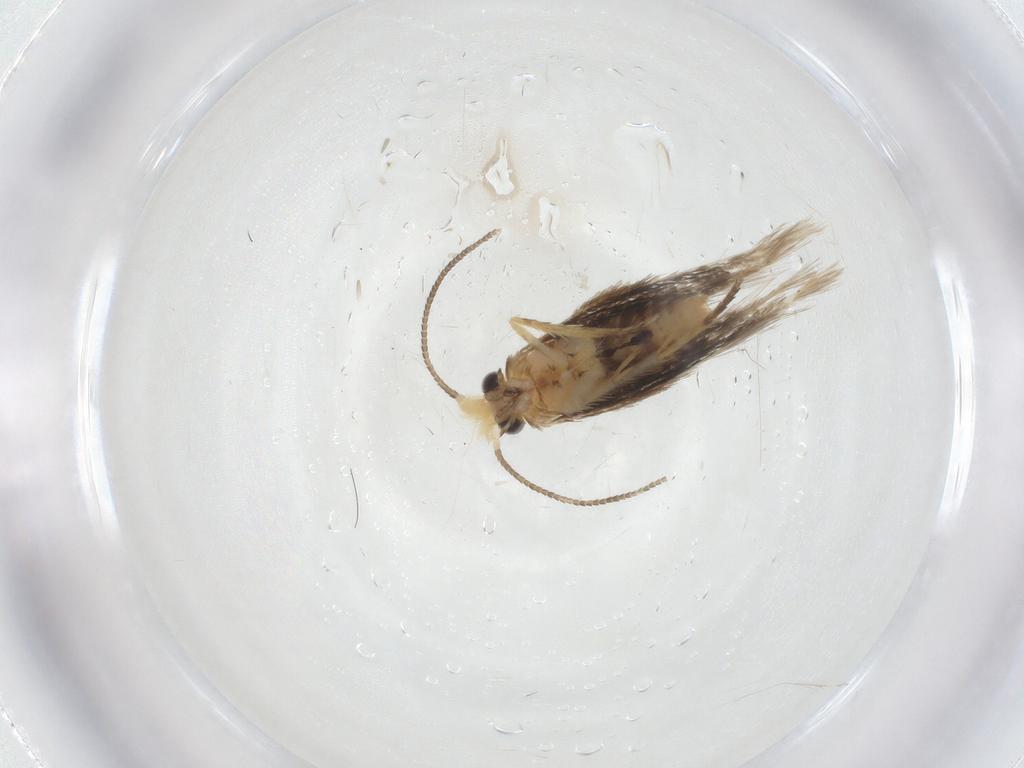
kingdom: Animalia
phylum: Arthropoda
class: Insecta
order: Lepidoptera
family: Nepticulidae
